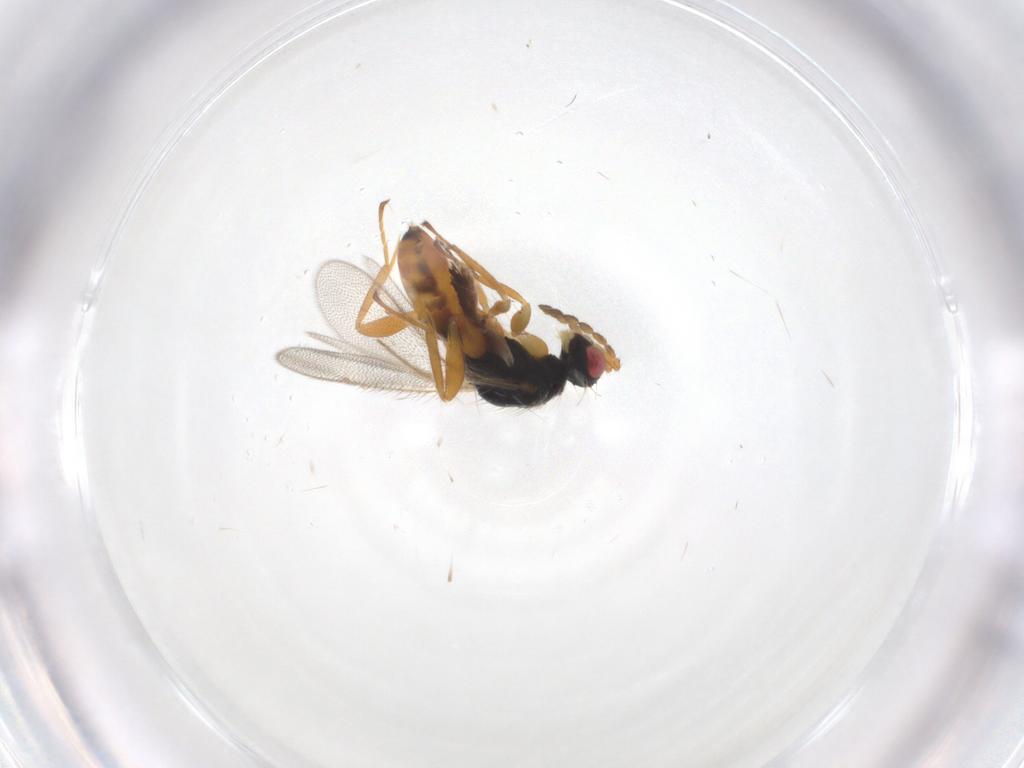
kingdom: Animalia
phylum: Arthropoda
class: Insecta
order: Hymenoptera
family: Eulophidae
